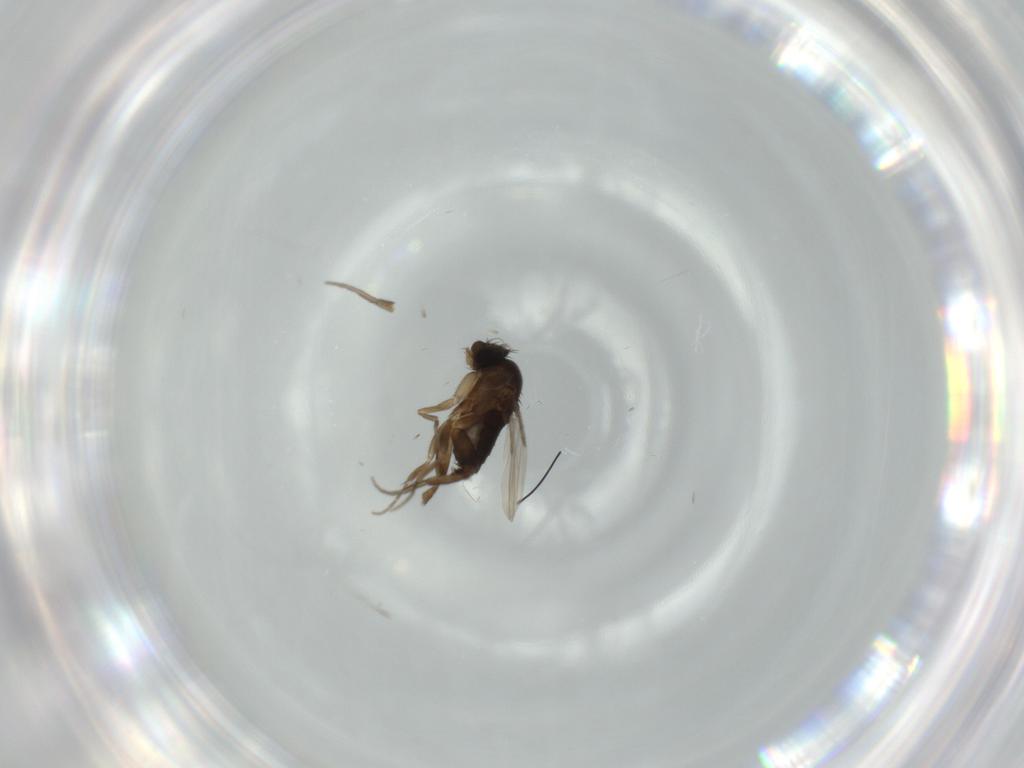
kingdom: Animalia
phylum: Arthropoda
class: Insecta
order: Diptera
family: Phoridae
